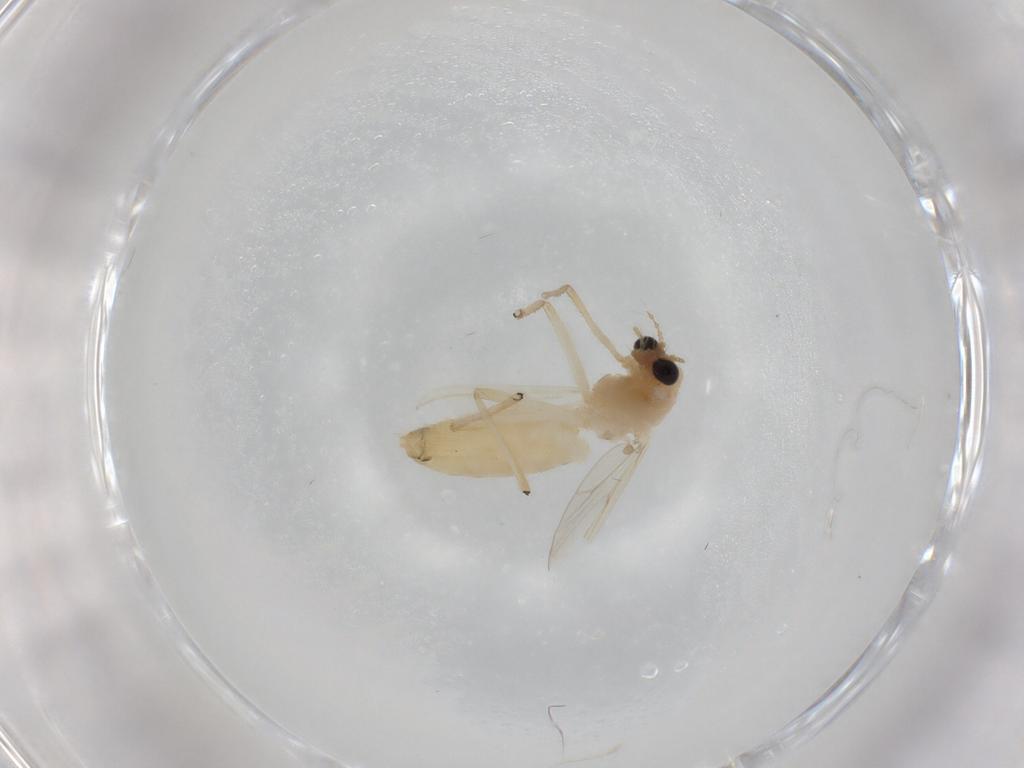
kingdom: Animalia
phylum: Arthropoda
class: Insecta
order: Diptera
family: Chironomidae
